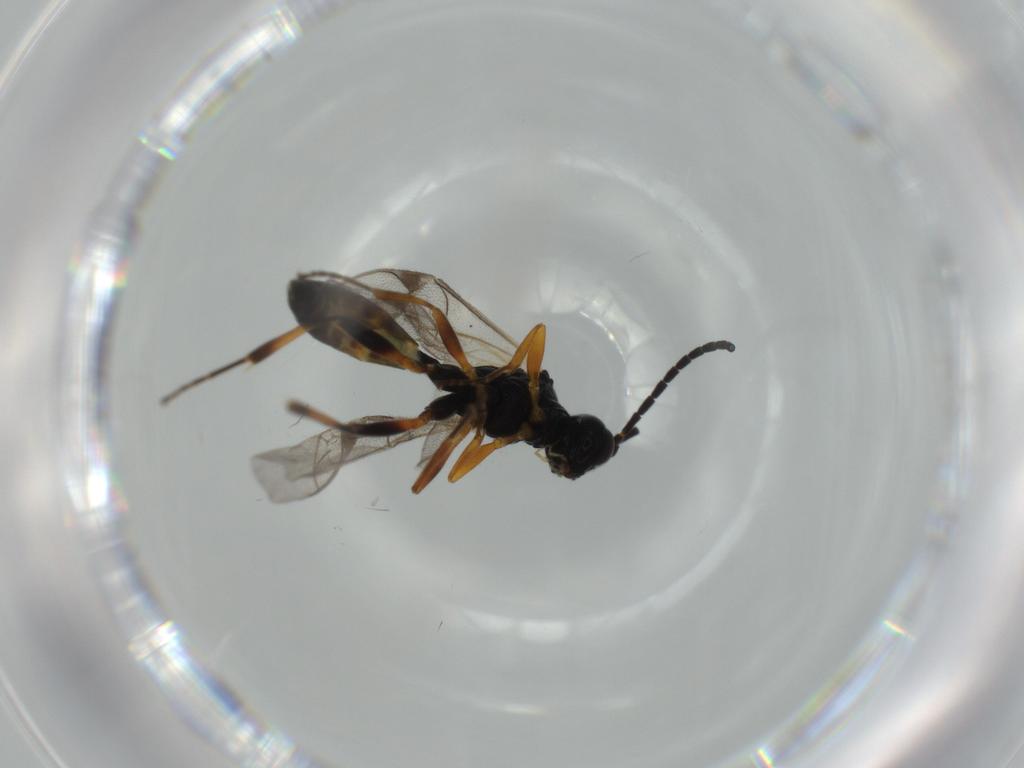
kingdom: Animalia
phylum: Arthropoda
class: Insecta
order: Hymenoptera
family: Ichneumonidae
